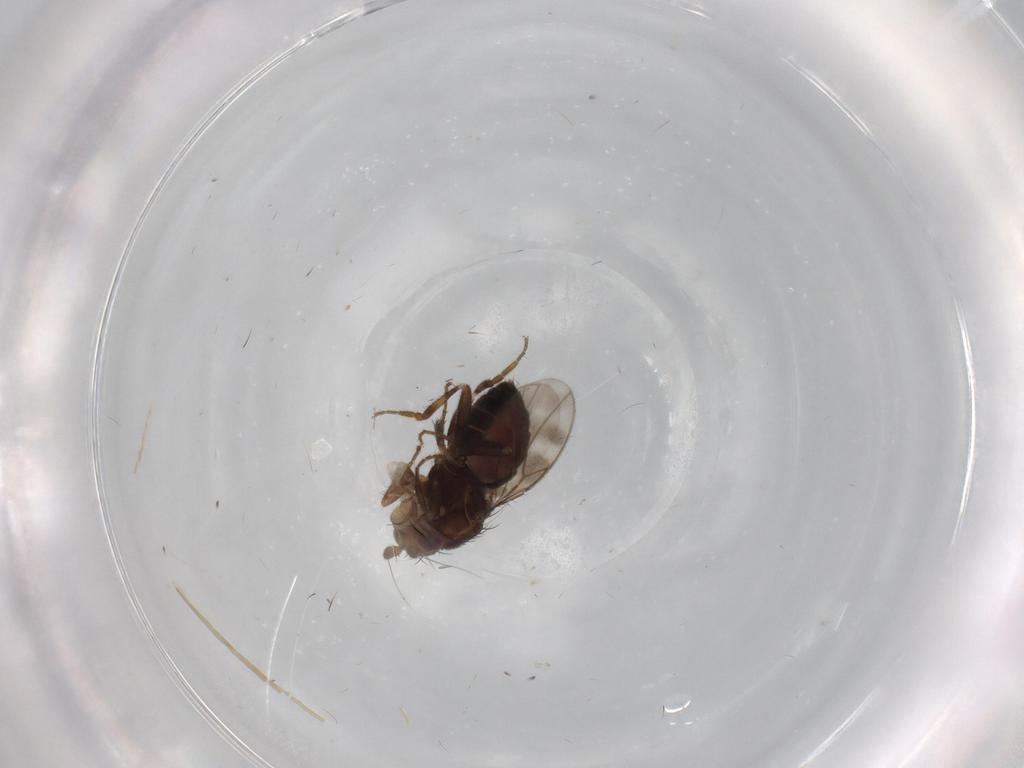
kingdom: Animalia
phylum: Arthropoda
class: Insecta
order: Diptera
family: Sphaeroceridae
